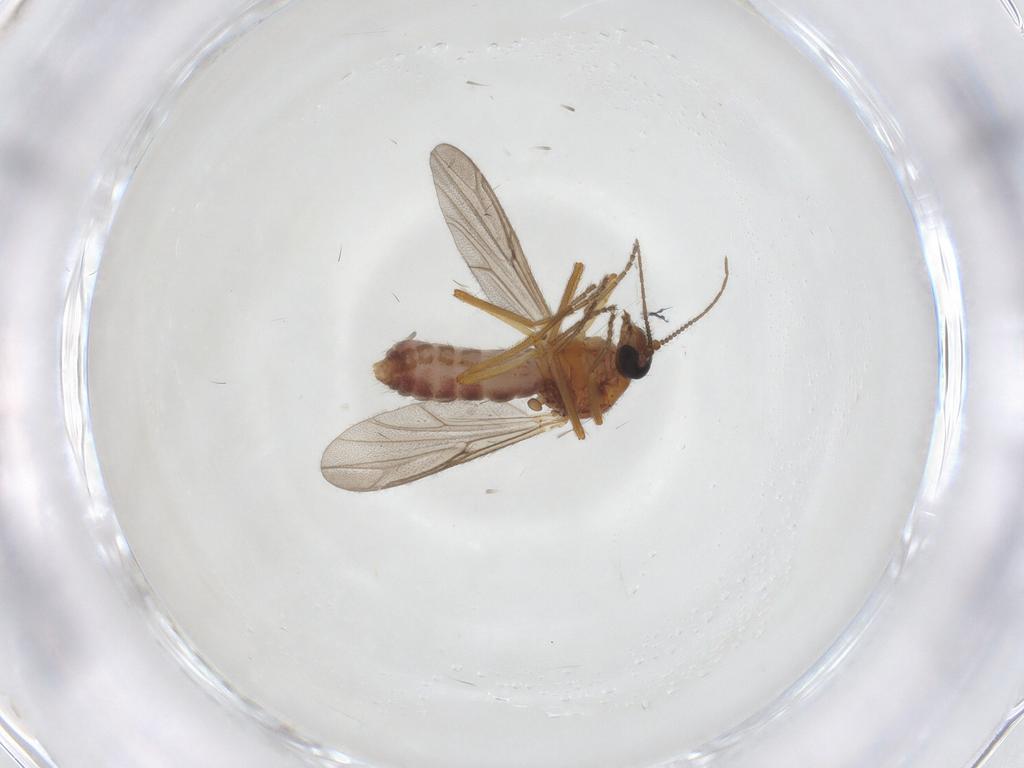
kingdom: Animalia
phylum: Arthropoda
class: Insecta
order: Diptera
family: Ceratopogonidae
